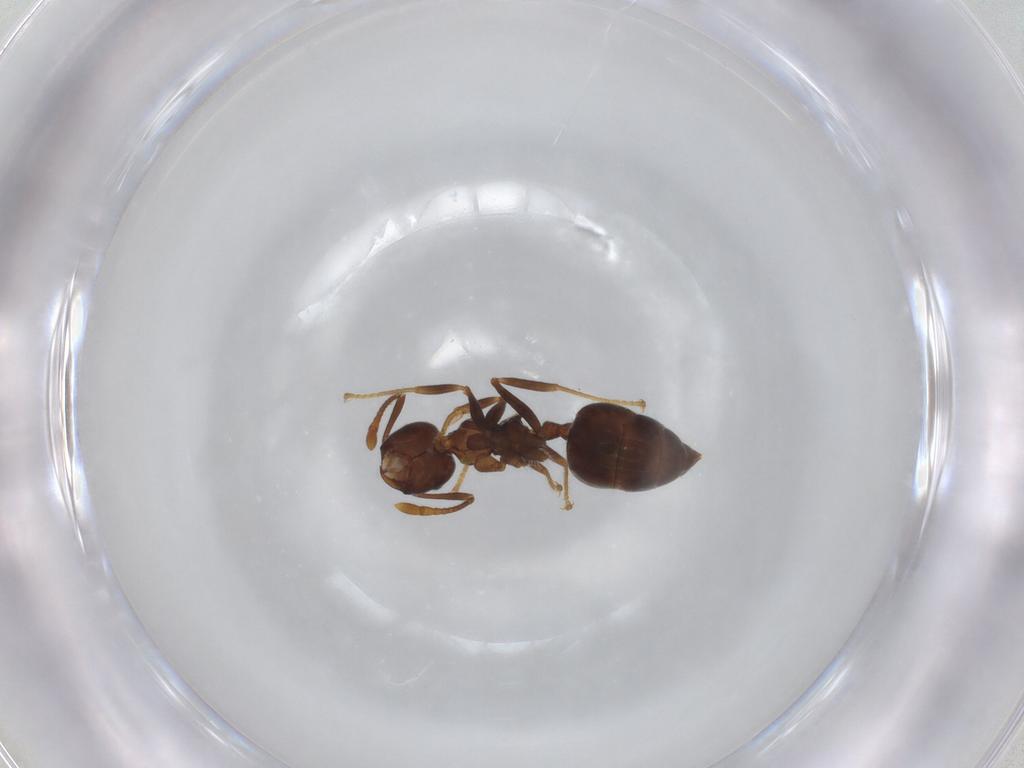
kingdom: Animalia
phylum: Arthropoda
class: Insecta
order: Hymenoptera
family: Formicidae
